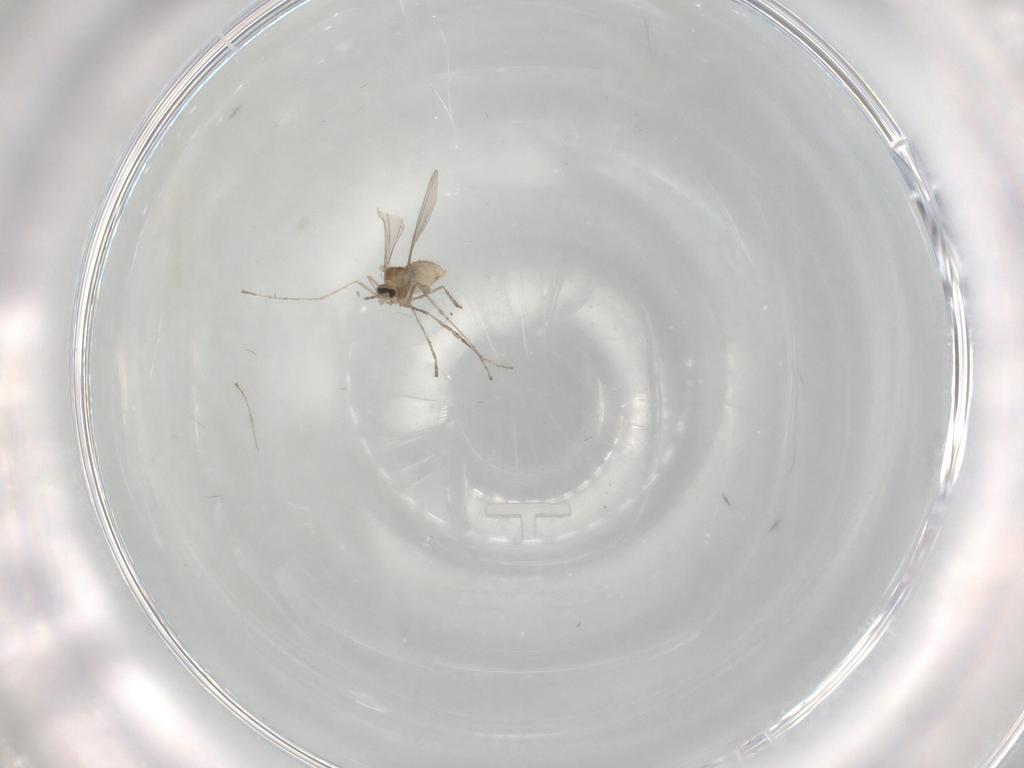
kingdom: Animalia
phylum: Arthropoda
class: Insecta
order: Diptera
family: Cecidomyiidae
